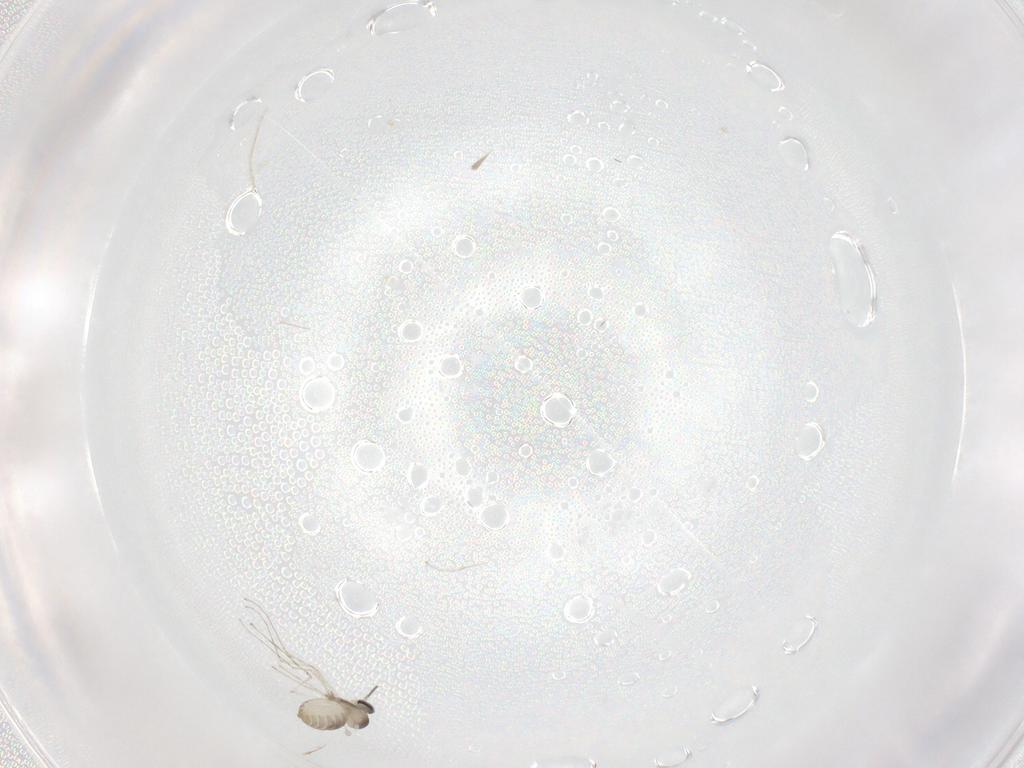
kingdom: Animalia
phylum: Arthropoda
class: Insecta
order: Diptera
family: Cecidomyiidae
